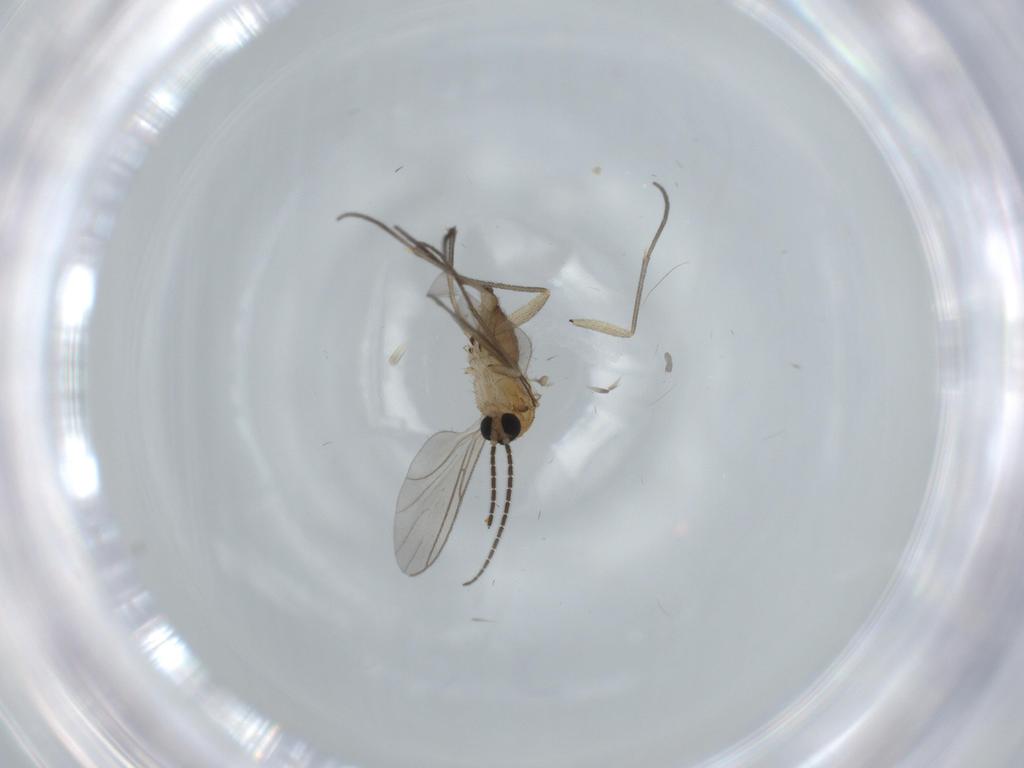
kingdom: Animalia
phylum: Arthropoda
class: Insecta
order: Diptera
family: Sciaridae
